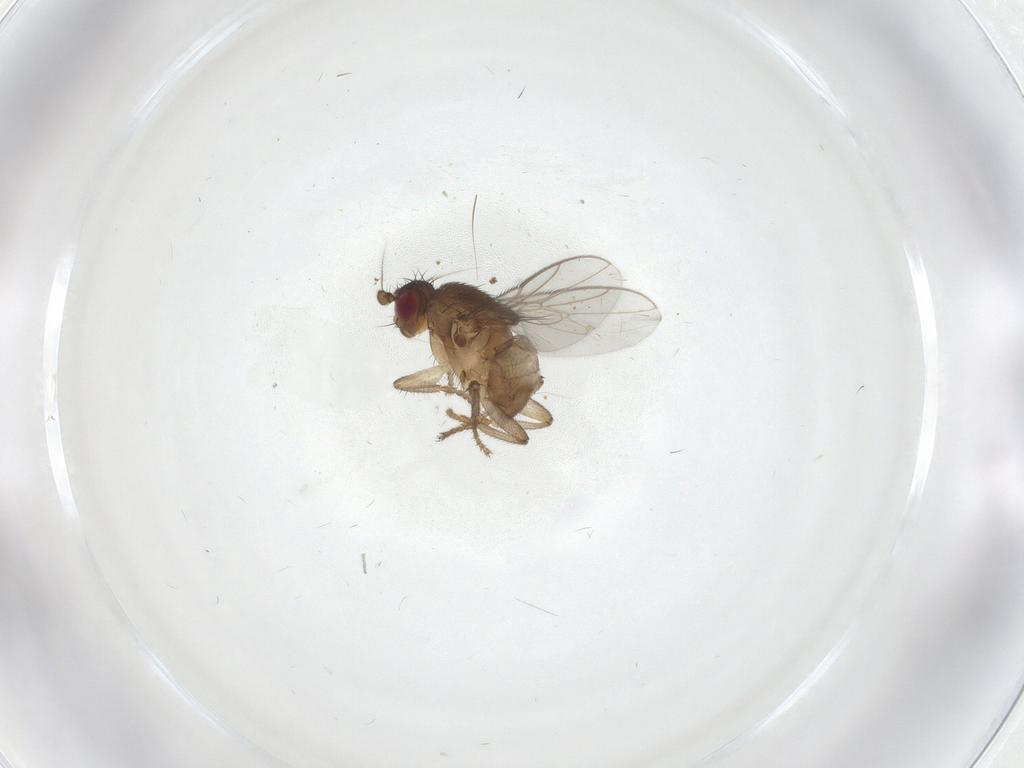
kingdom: Animalia
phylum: Arthropoda
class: Insecta
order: Diptera
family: Sphaeroceridae
